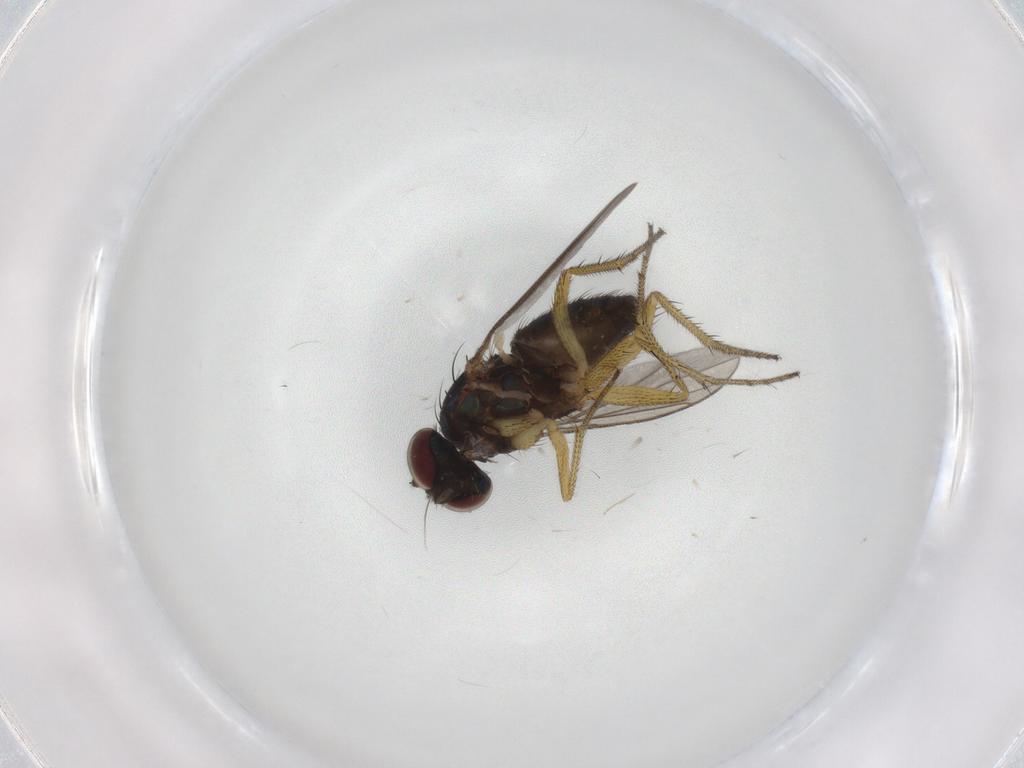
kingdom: Animalia
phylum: Arthropoda
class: Insecta
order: Diptera
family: Dolichopodidae
